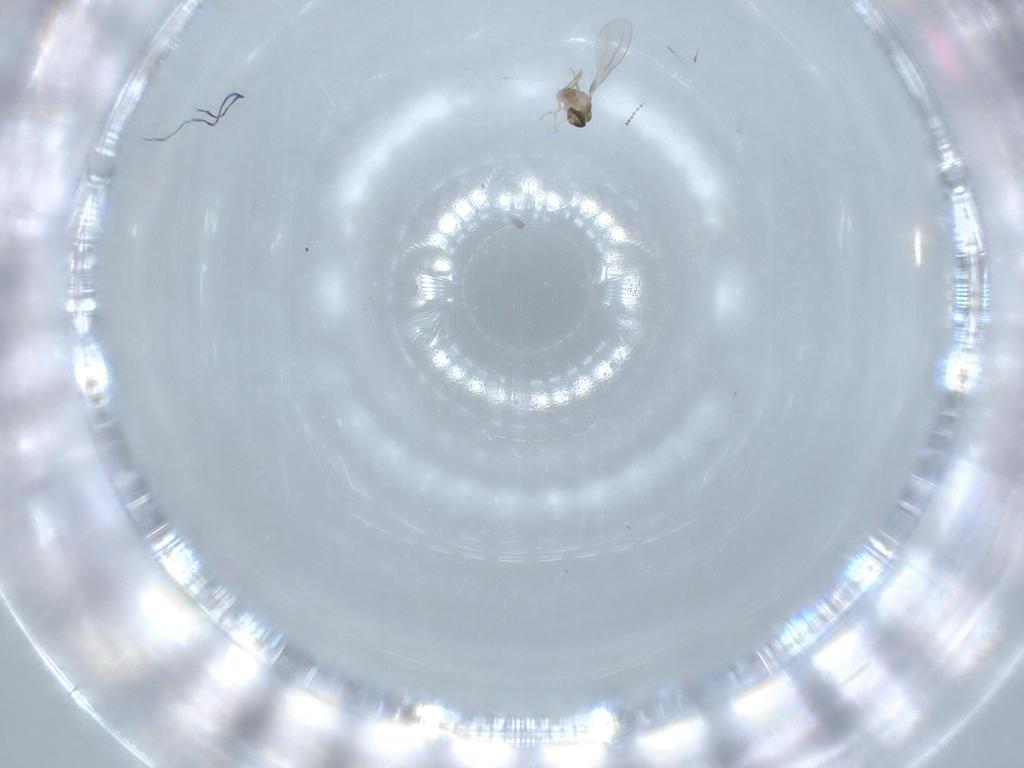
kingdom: Animalia
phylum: Arthropoda
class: Insecta
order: Diptera
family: Cecidomyiidae
